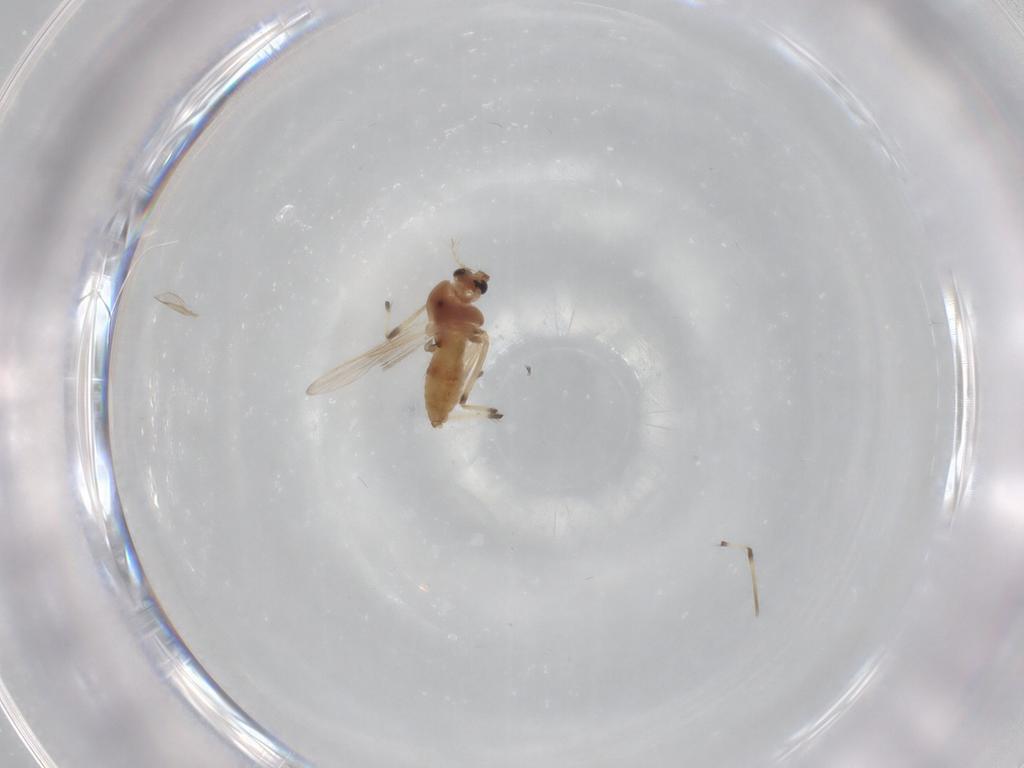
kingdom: Animalia
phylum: Arthropoda
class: Insecta
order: Diptera
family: Chironomidae
